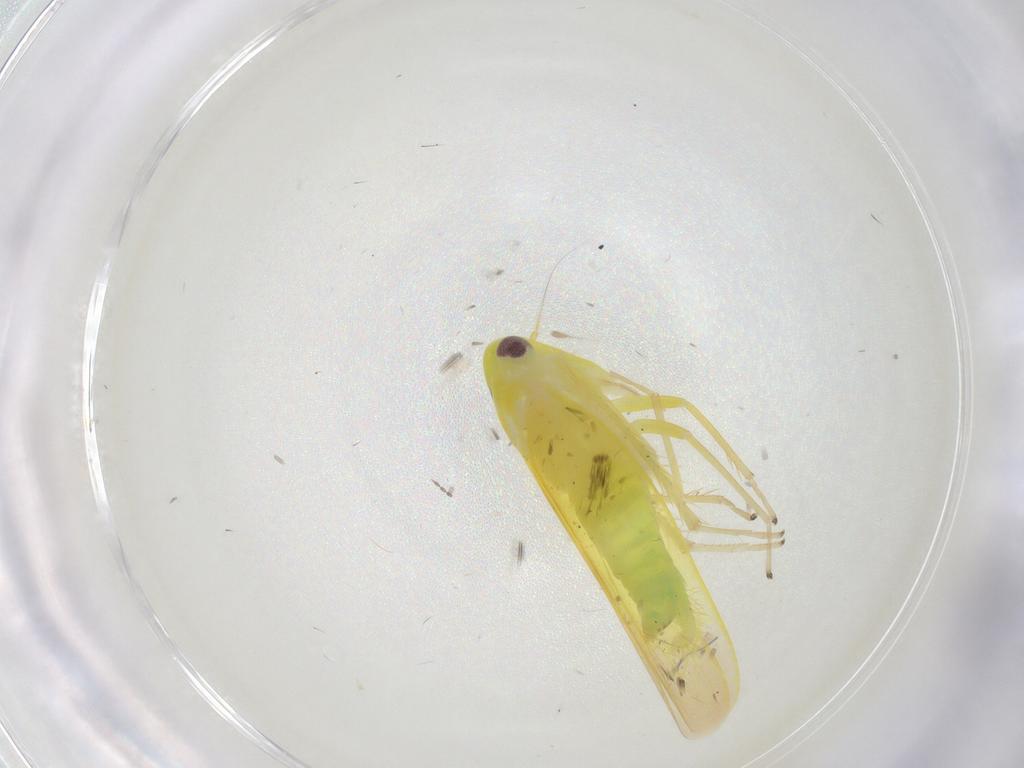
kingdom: Animalia
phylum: Arthropoda
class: Insecta
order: Hemiptera
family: Cicadellidae
